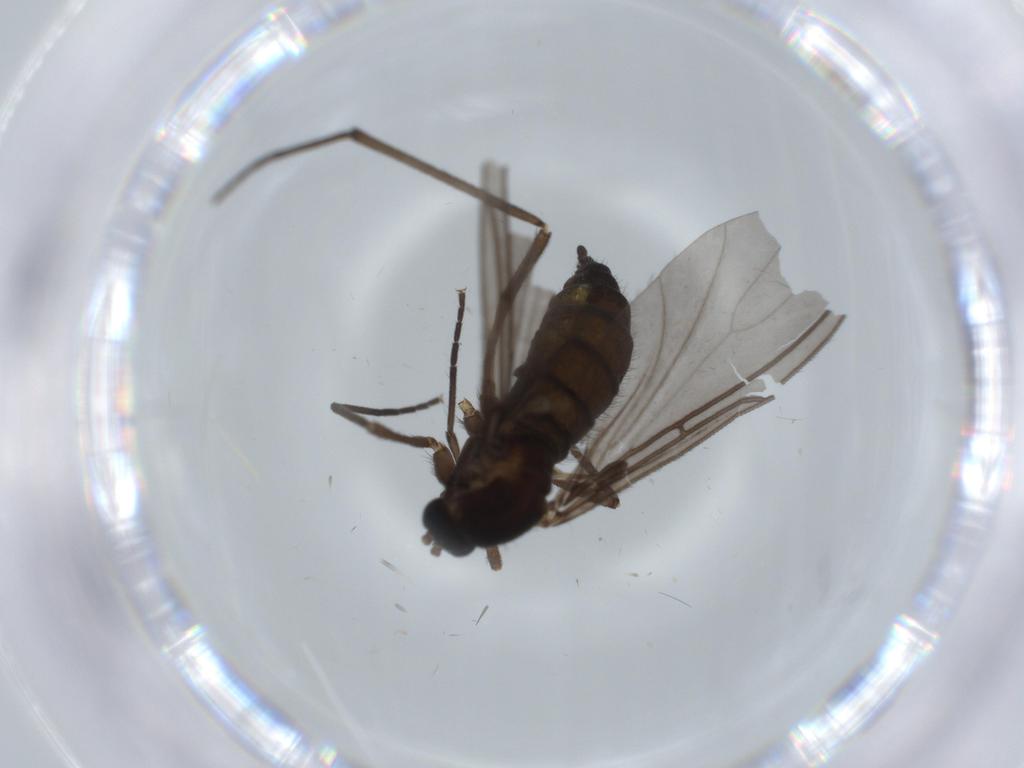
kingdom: Animalia
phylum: Arthropoda
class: Insecta
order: Diptera
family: Sciaridae
